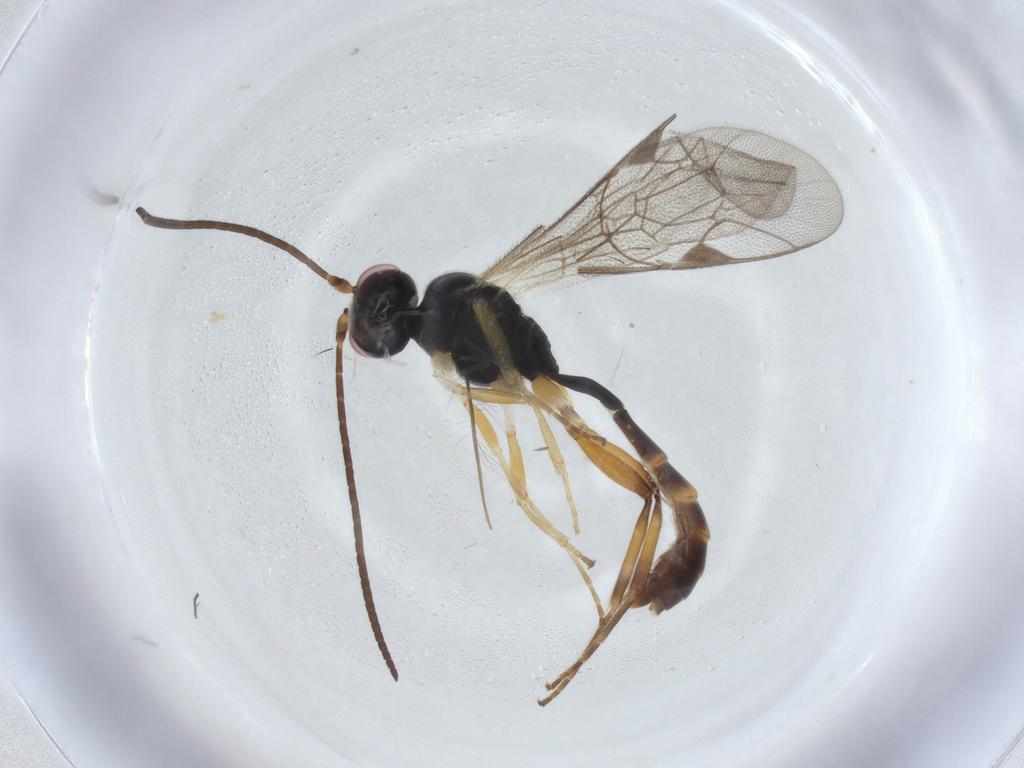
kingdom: Animalia
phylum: Arthropoda
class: Insecta
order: Hymenoptera
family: Ichneumonidae
